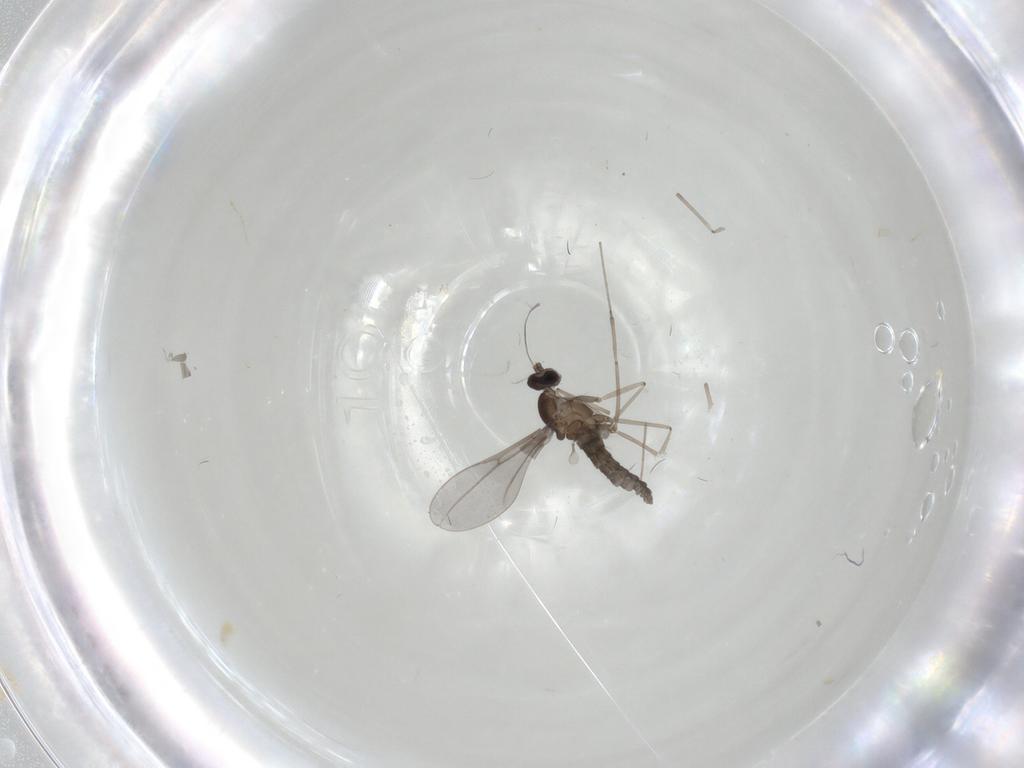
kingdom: Animalia
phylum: Arthropoda
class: Insecta
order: Diptera
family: Cecidomyiidae
